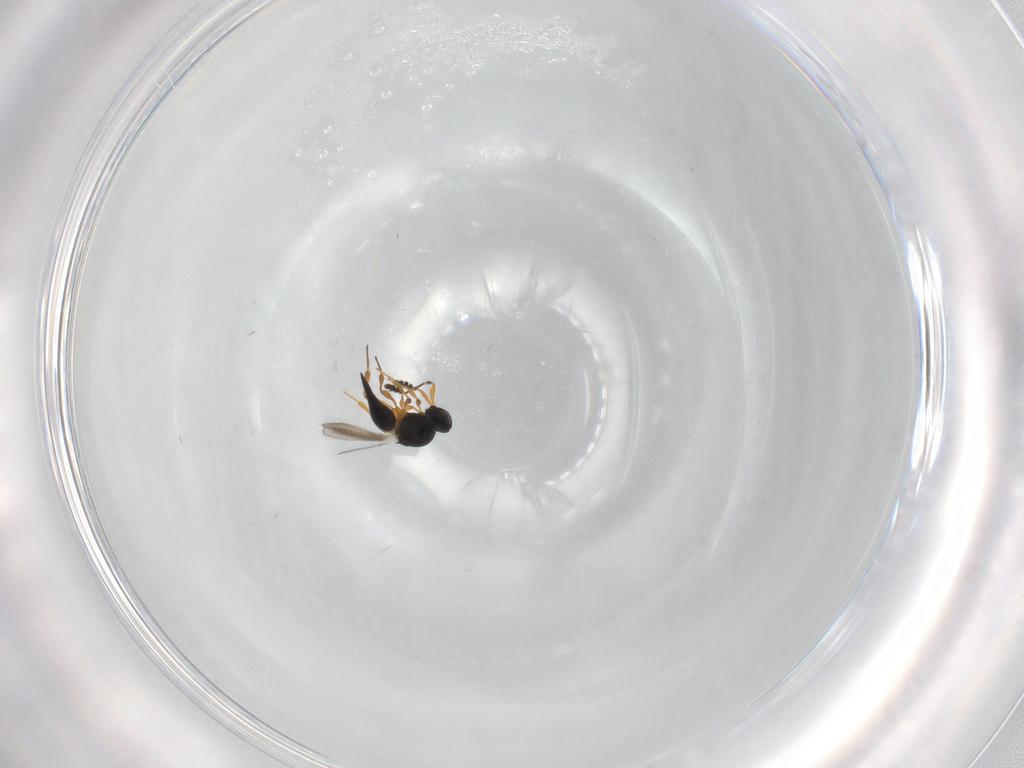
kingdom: Animalia
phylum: Arthropoda
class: Insecta
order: Hymenoptera
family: Platygastridae
